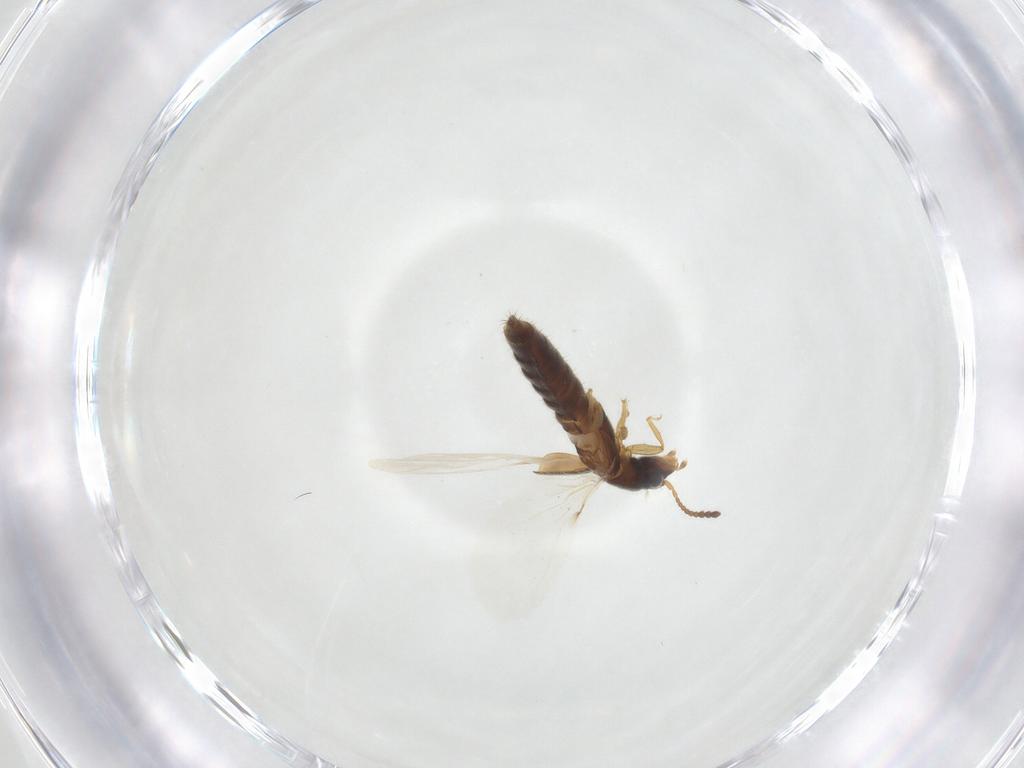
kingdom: Animalia
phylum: Arthropoda
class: Insecta
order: Coleoptera
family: Staphylinidae
